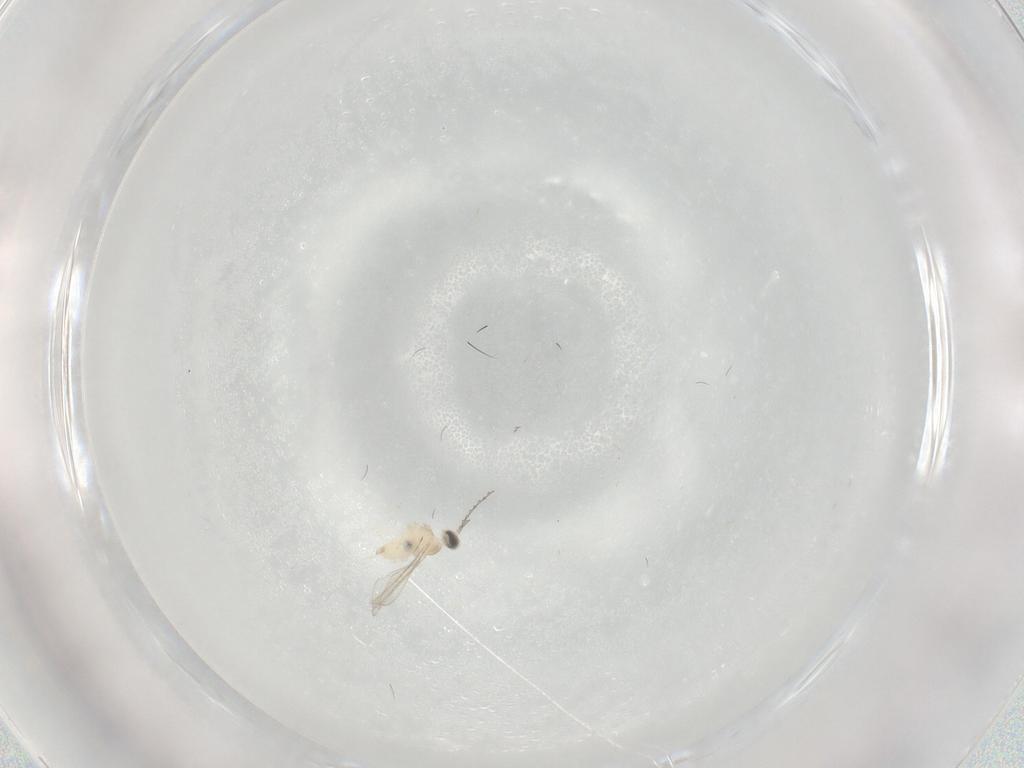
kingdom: Animalia
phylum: Arthropoda
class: Insecta
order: Diptera
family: Cecidomyiidae
